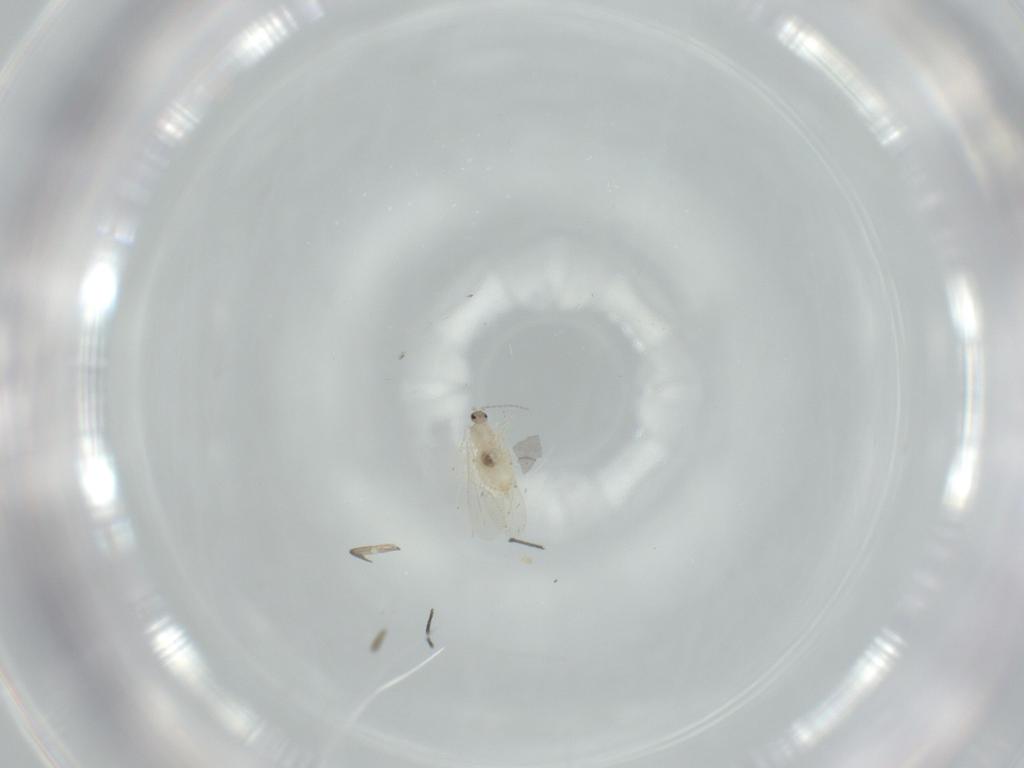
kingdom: Animalia
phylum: Arthropoda
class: Insecta
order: Diptera
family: Cecidomyiidae
